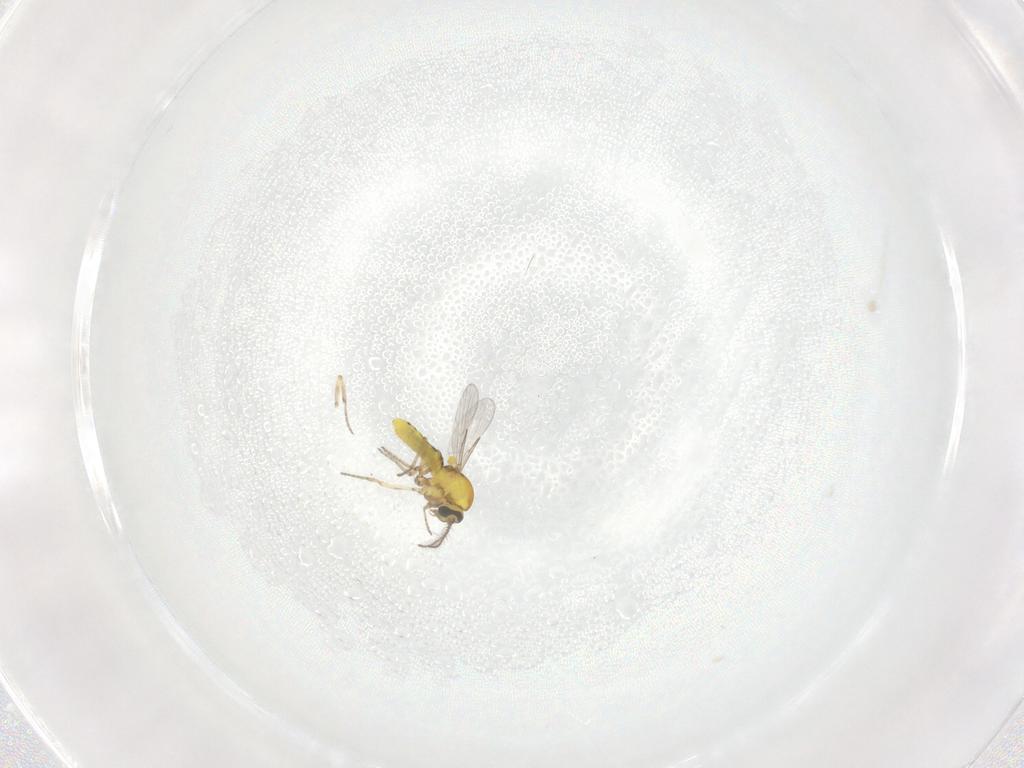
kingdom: Animalia
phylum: Arthropoda
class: Insecta
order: Diptera
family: Ceratopogonidae
